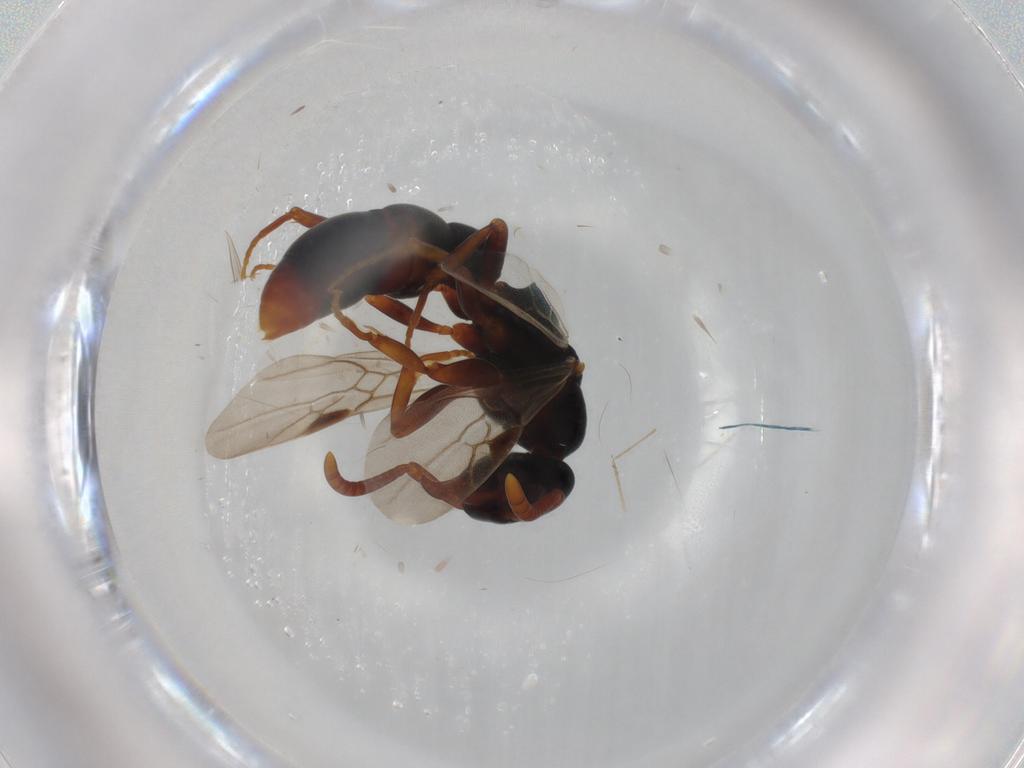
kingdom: Animalia
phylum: Arthropoda
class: Insecta
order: Hymenoptera
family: Formicidae
